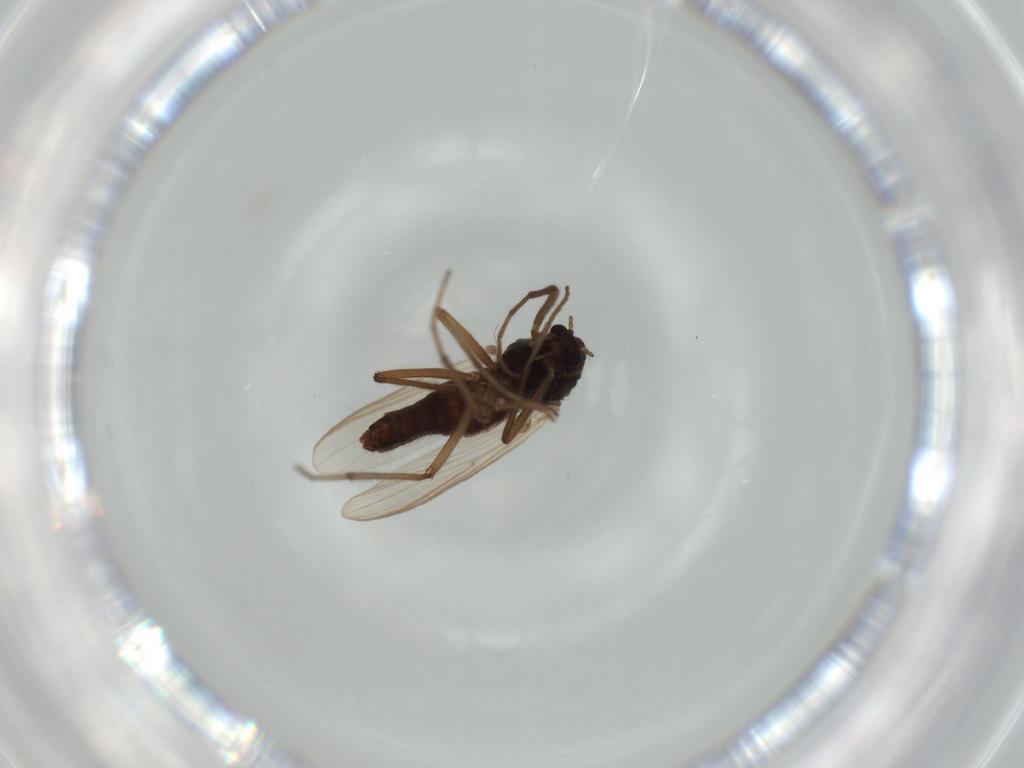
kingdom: Animalia
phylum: Arthropoda
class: Insecta
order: Diptera
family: Chironomidae
